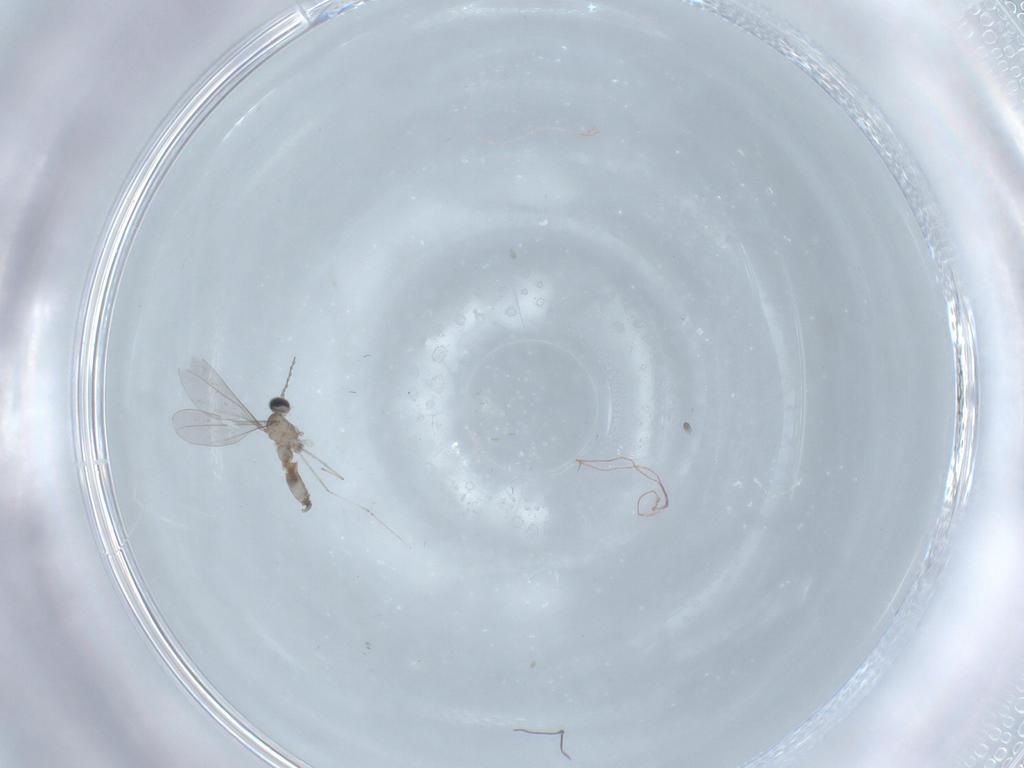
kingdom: Animalia
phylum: Arthropoda
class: Insecta
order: Diptera
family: Cecidomyiidae
